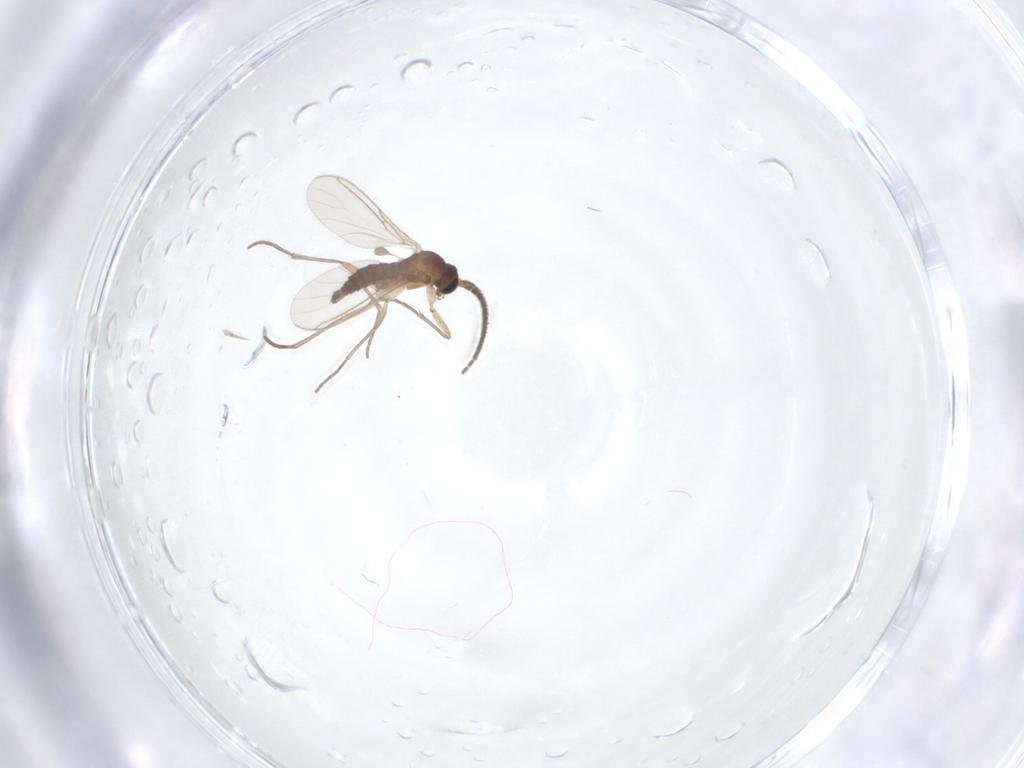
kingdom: Animalia
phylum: Arthropoda
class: Insecta
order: Diptera
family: Sciaridae
